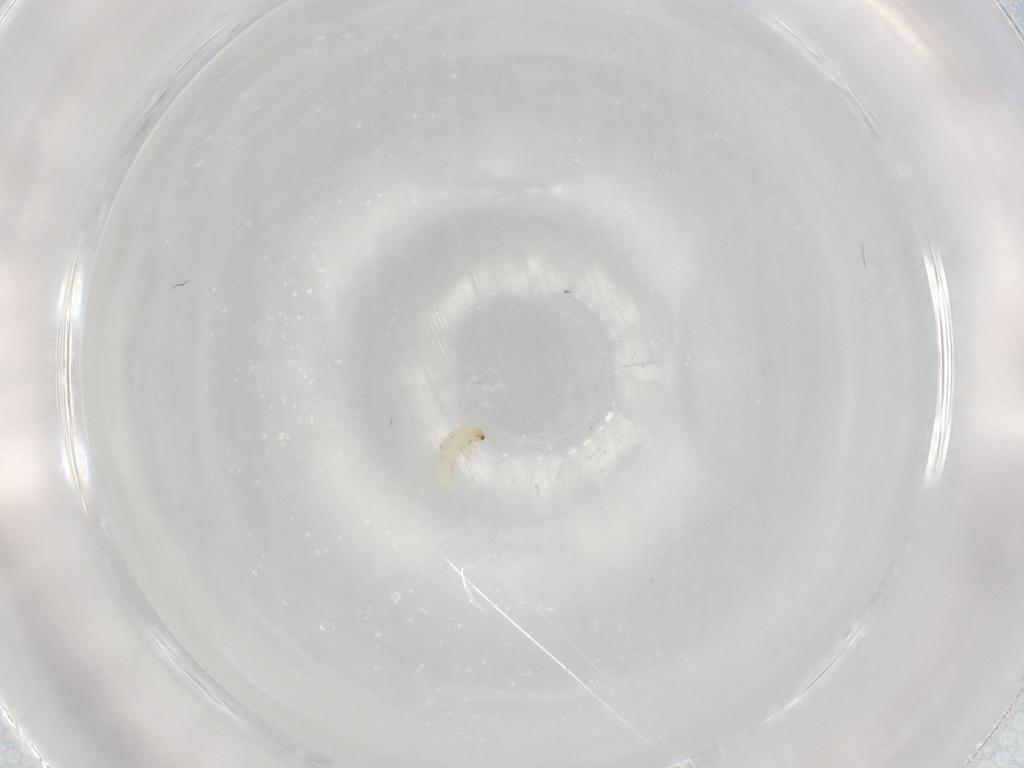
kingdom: Animalia
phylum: Arthropoda
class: Insecta
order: Coleoptera
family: Chrysomelidae
